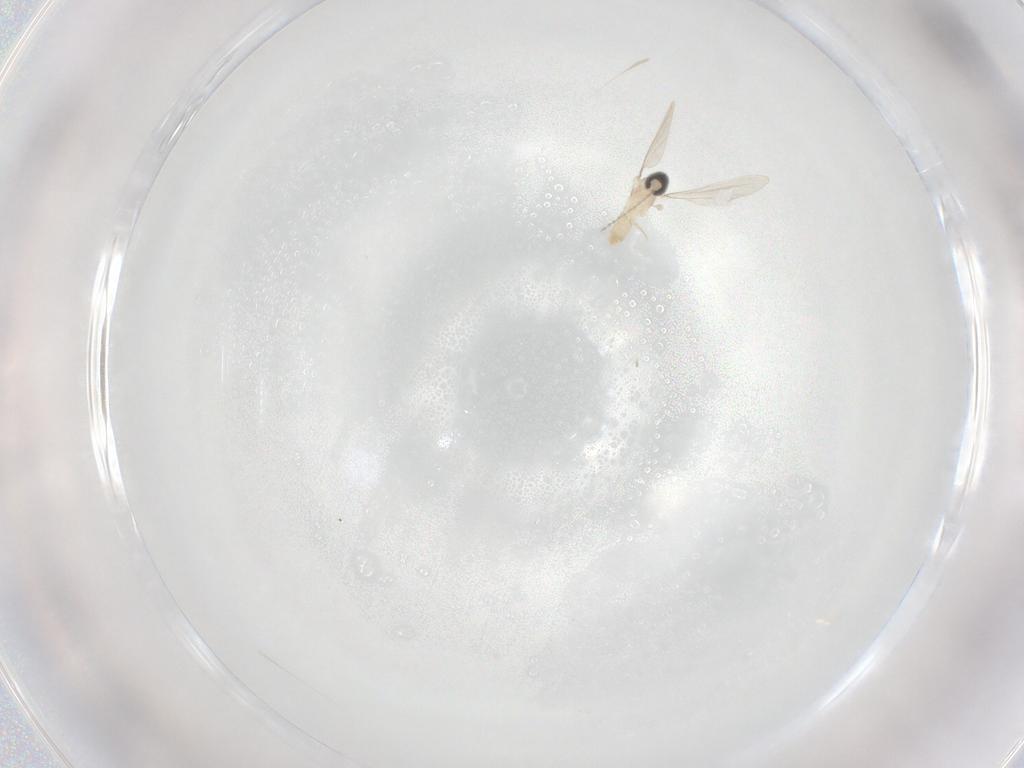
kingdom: Animalia
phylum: Arthropoda
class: Insecta
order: Diptera
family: Cecidomyiidae
